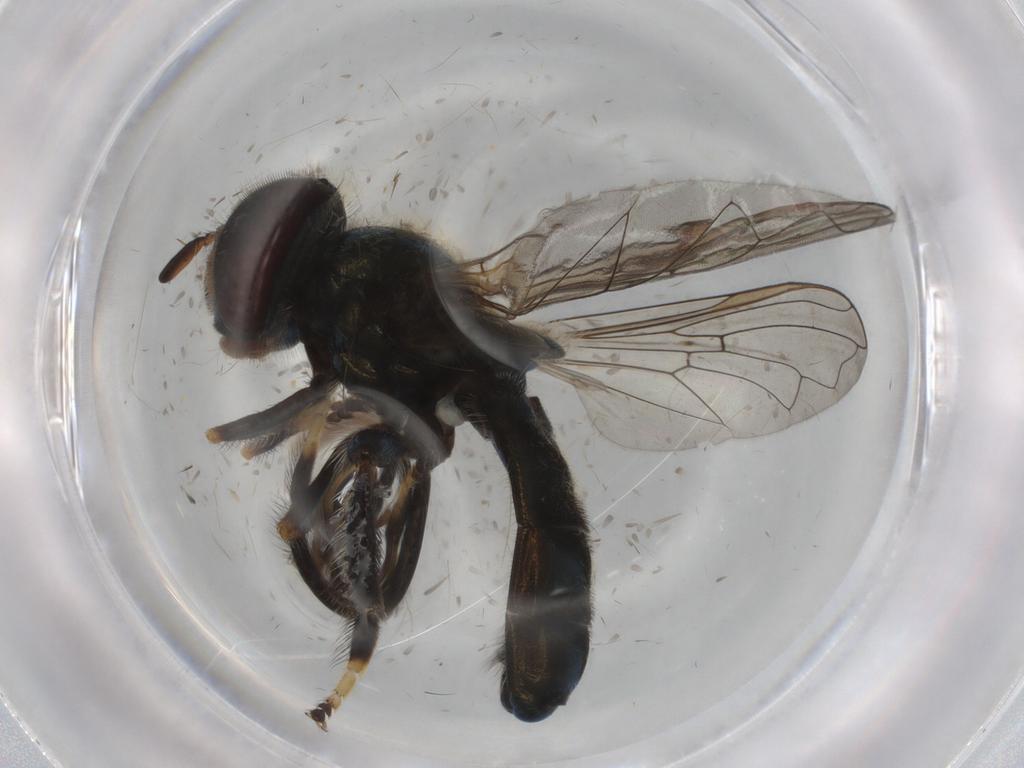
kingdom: Animalia
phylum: Arthropoda
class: Insecta
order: Diptera
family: Syrphidae
